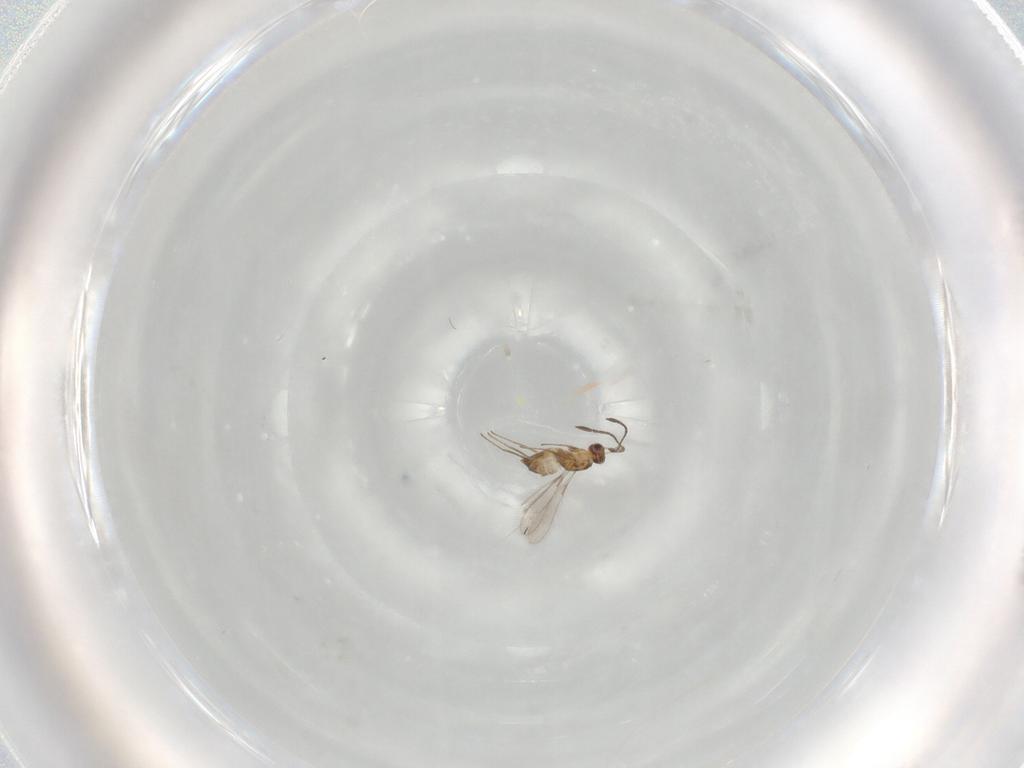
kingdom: Animalia
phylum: Arthropoda
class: Insecta
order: Hymenoptera
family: Mymaridae
